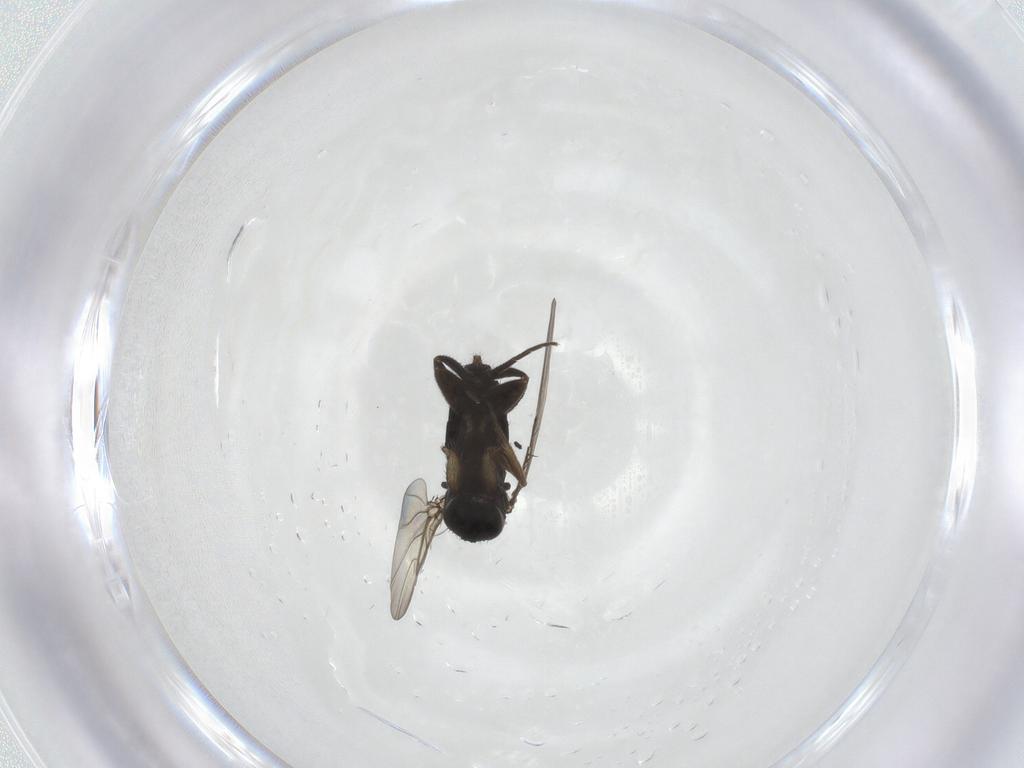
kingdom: Animalia
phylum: Arthropoda
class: Insecta
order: Diptera
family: Phoridae
